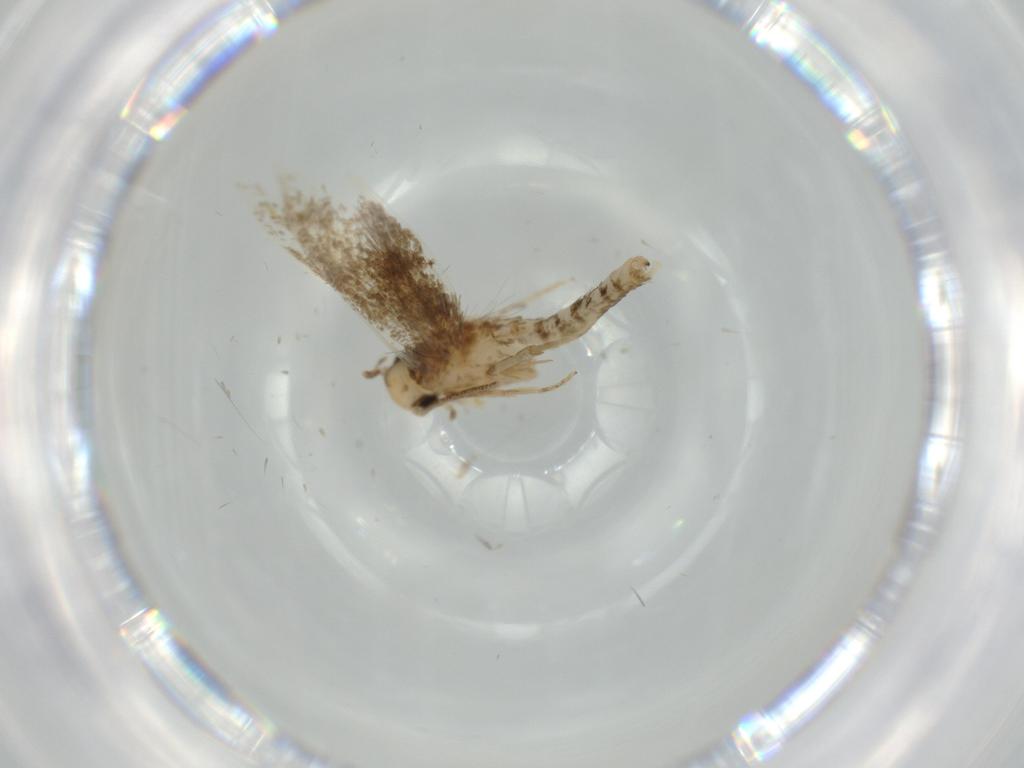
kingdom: Animalia
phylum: Arthropoda
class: Insecta
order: Lepidoptera
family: Tineidae
